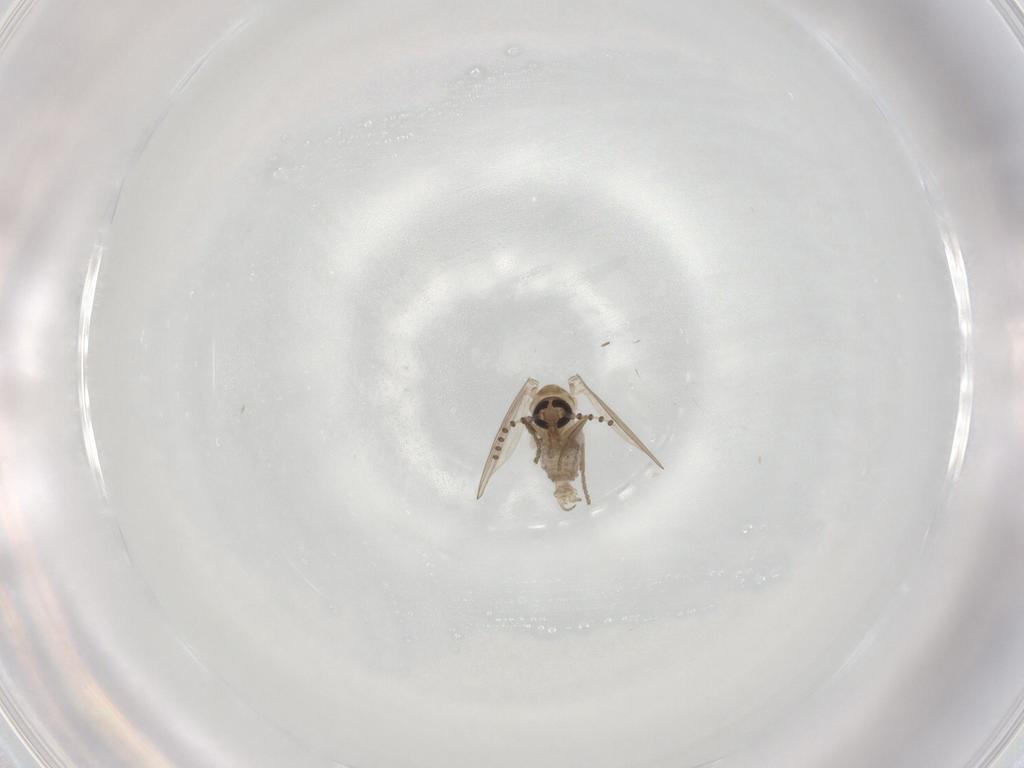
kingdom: Animalia
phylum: Arthropoda
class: Insecta
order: Diptera
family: Psychodidae
